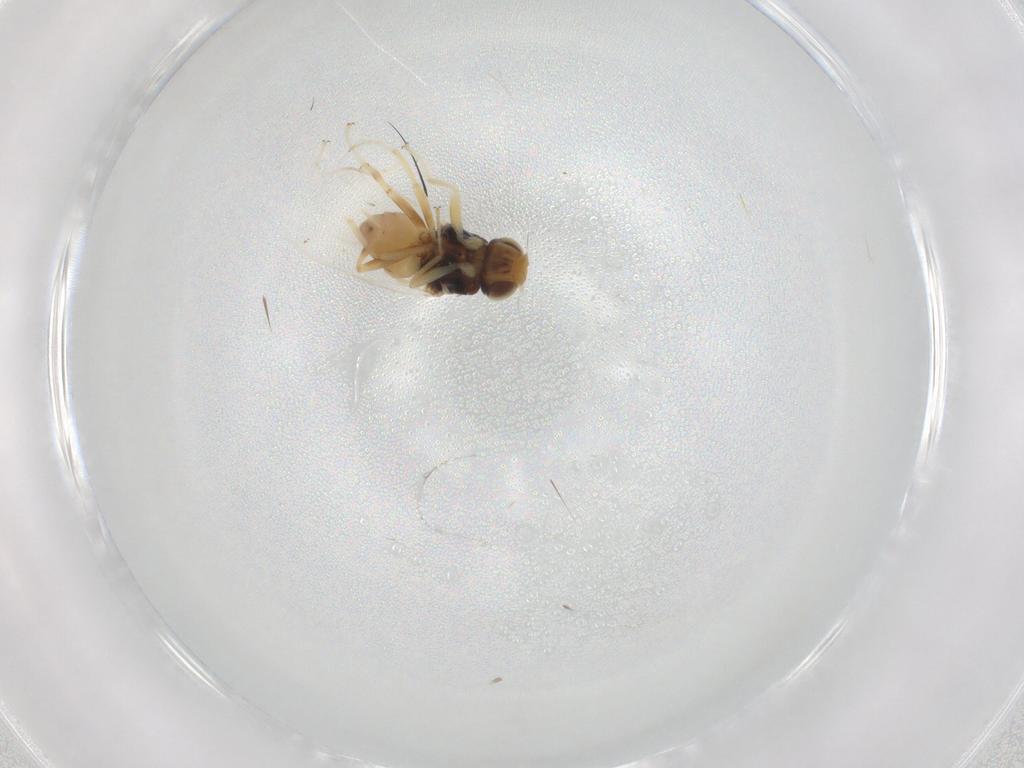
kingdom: Animalia
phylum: Arthropoda
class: Insecta
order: Diptera
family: Chloropidae
